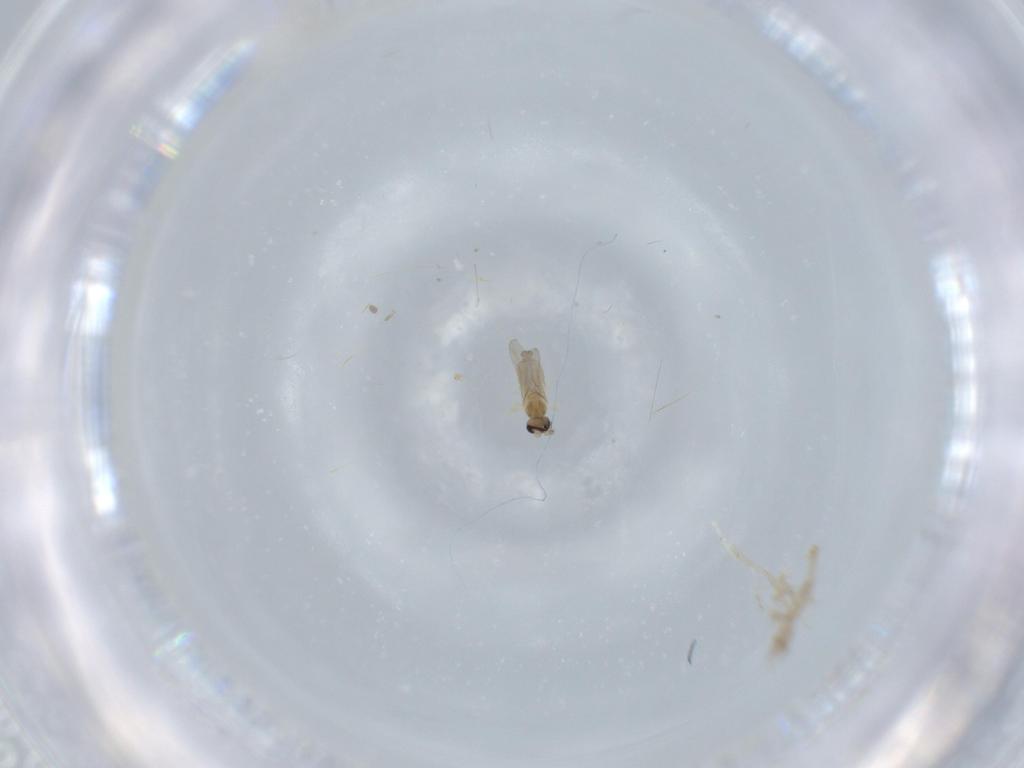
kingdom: Animalia
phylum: Arthropoda
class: Insecta
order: Diptera
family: Cecidomyiidae
